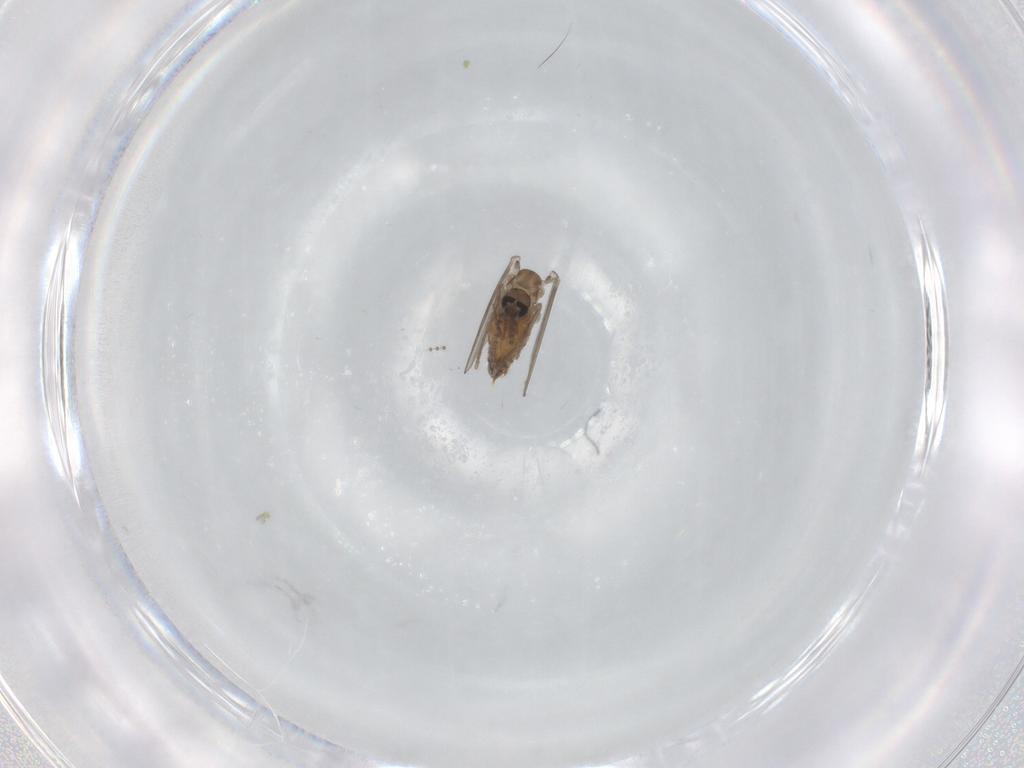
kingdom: Animalia
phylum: Arthropoda
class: Insecta
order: Diptera
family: Psychodidae
